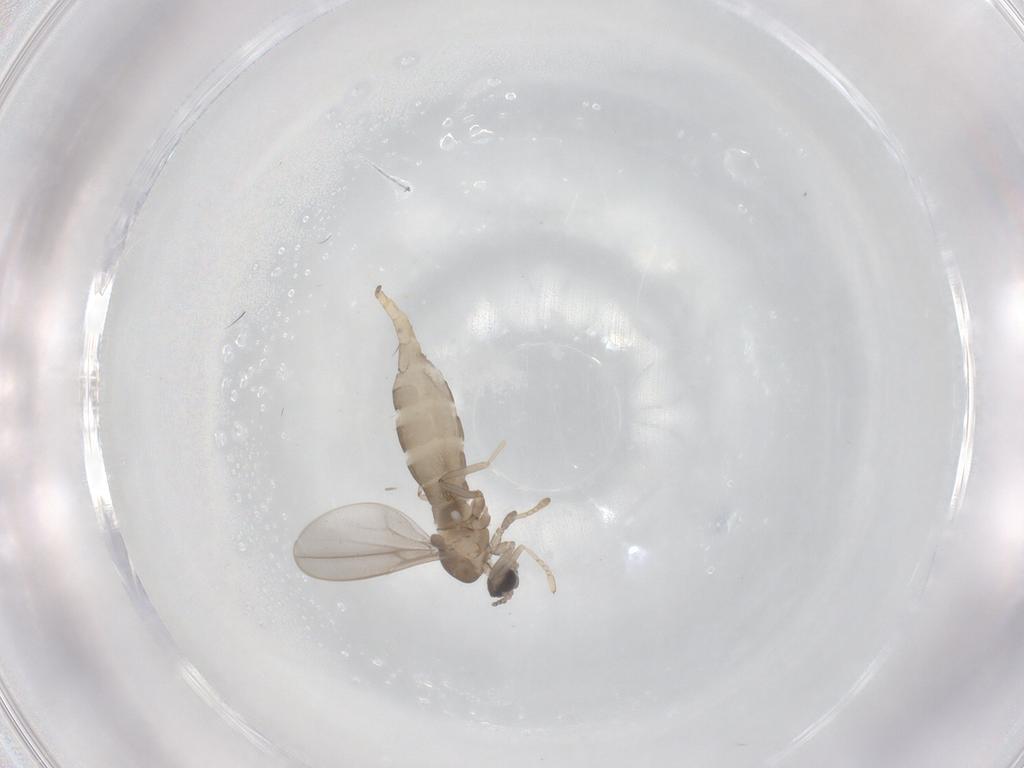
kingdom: Animalia
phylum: Arthropoda
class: Insecta
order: Diptera
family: Cecidomyiidae
